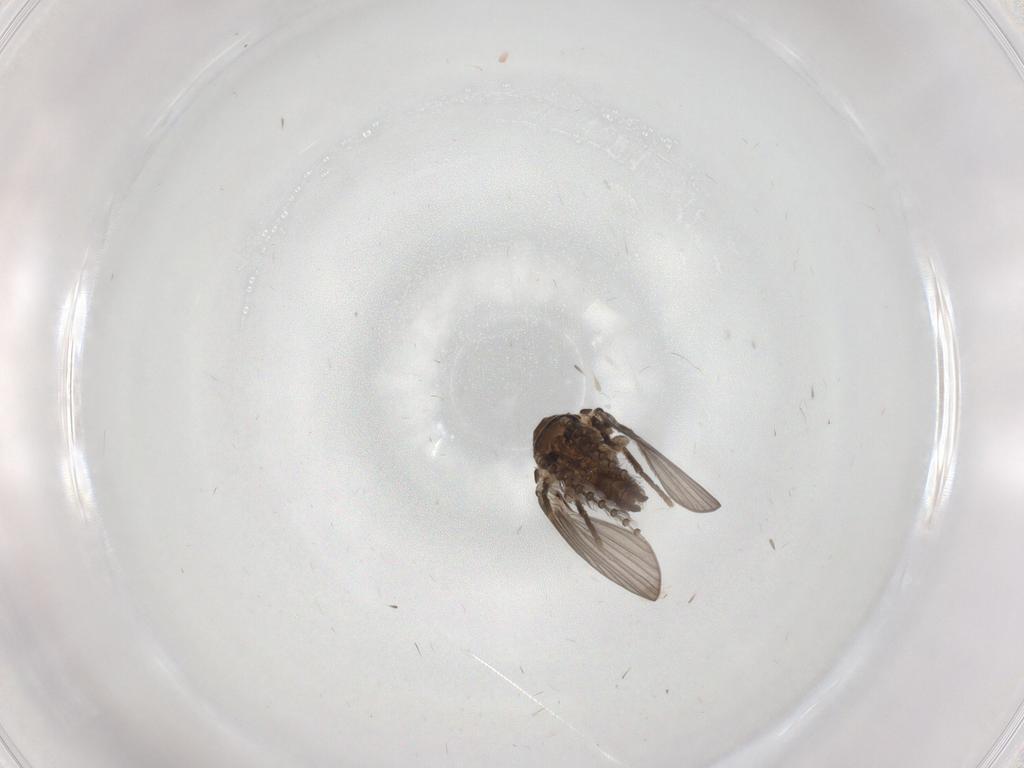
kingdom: Animalia
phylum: Arthropoda
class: Insecta
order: Diptera
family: Psychodidae
